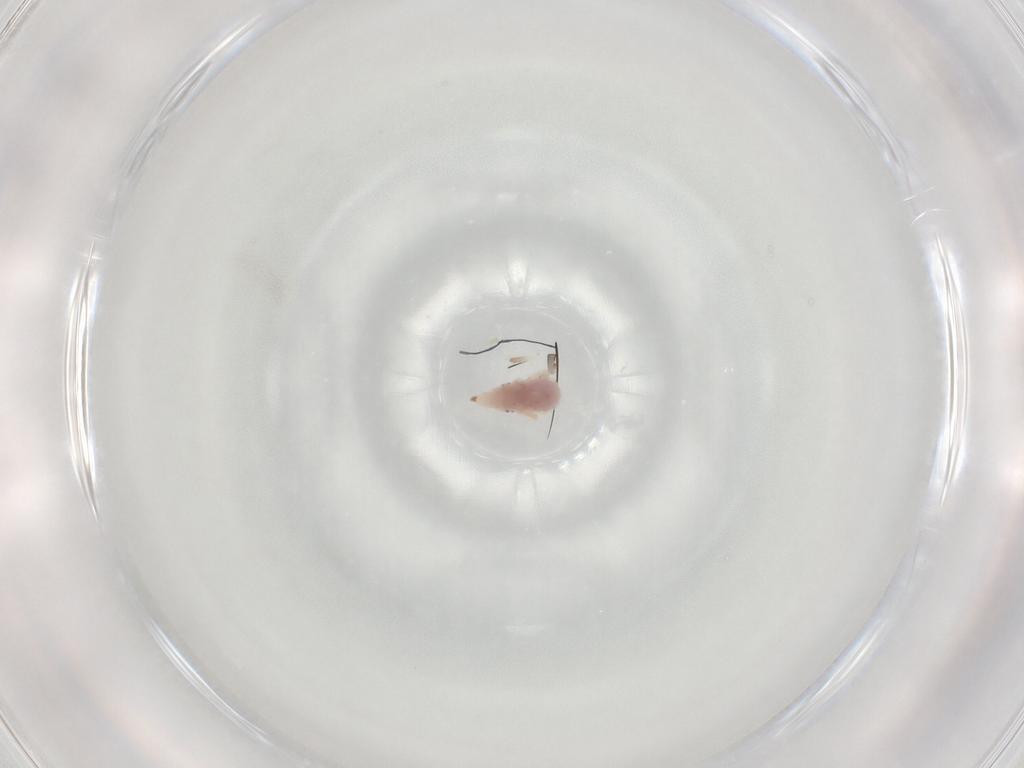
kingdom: Animalia
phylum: Arthropoda
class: Arachnida
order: Trombidiformes
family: Bdellidae
